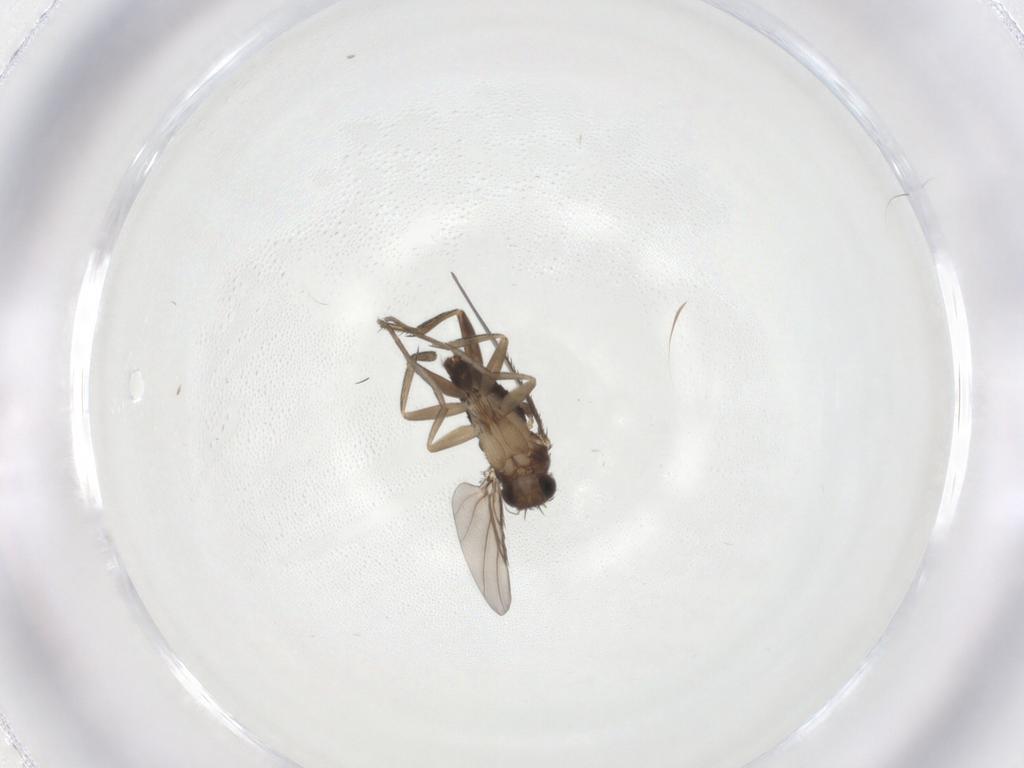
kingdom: Animalia
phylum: Arthropoda
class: Insecta
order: Diptera
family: Phoridae
